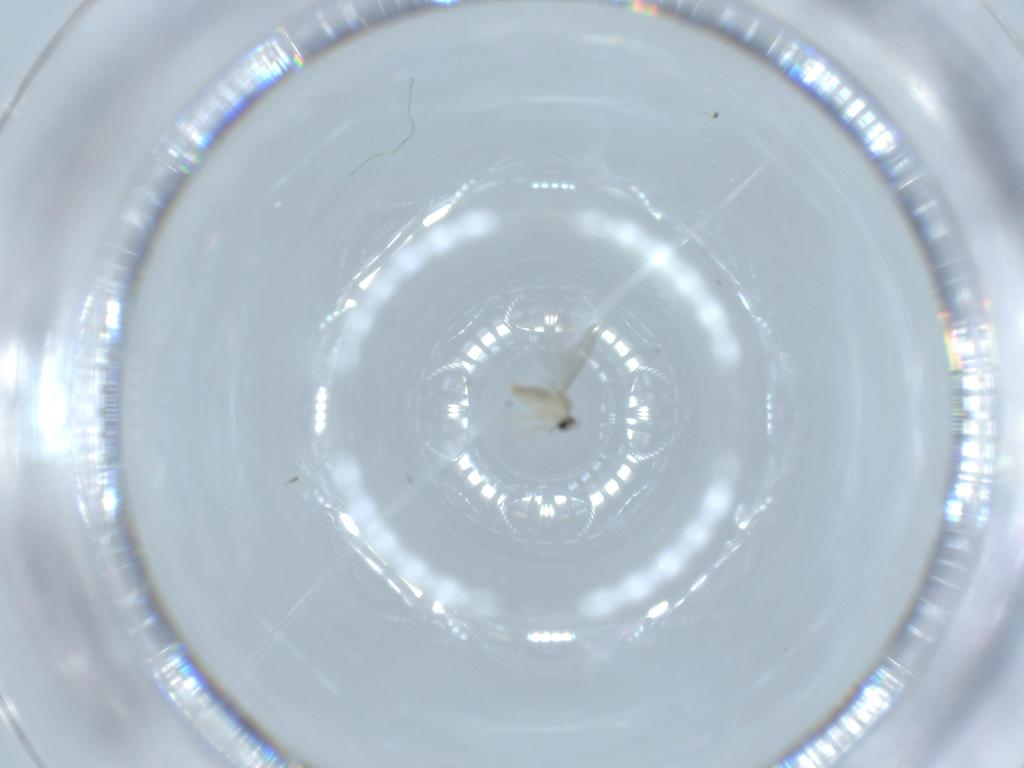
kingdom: Animalia
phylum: Arthropoda
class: Insecta
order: Diptera
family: Cecidomyiidae
